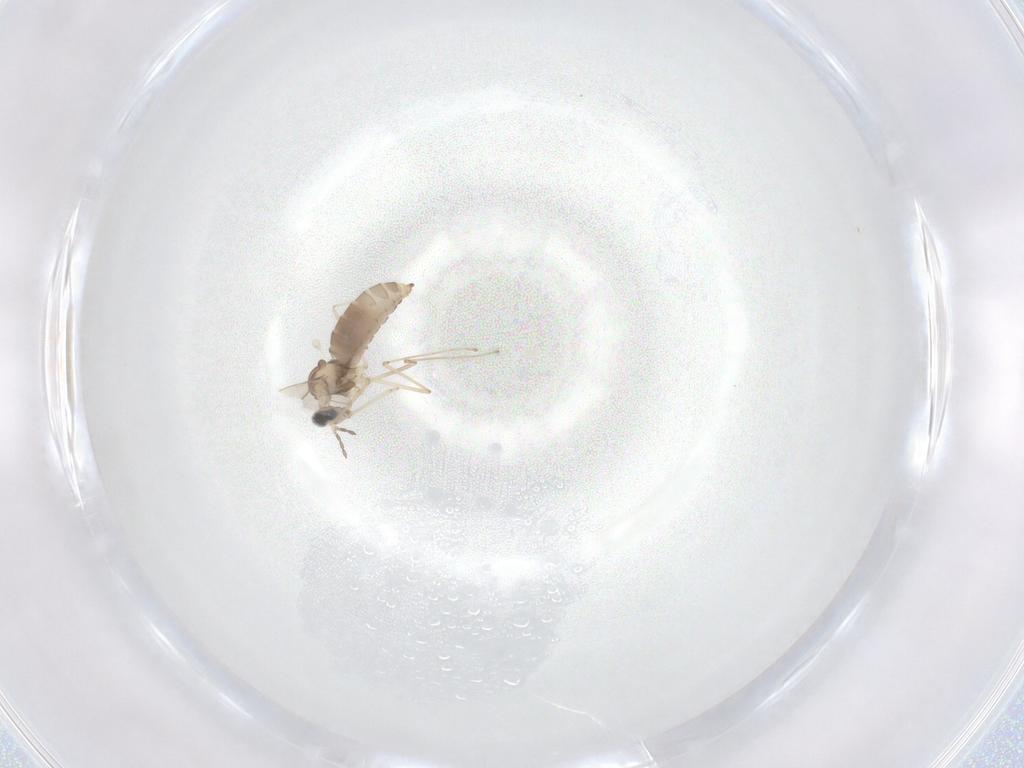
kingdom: Animalia
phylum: Arthropoda
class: Insecta
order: Diptera
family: Cecidomyiidae
